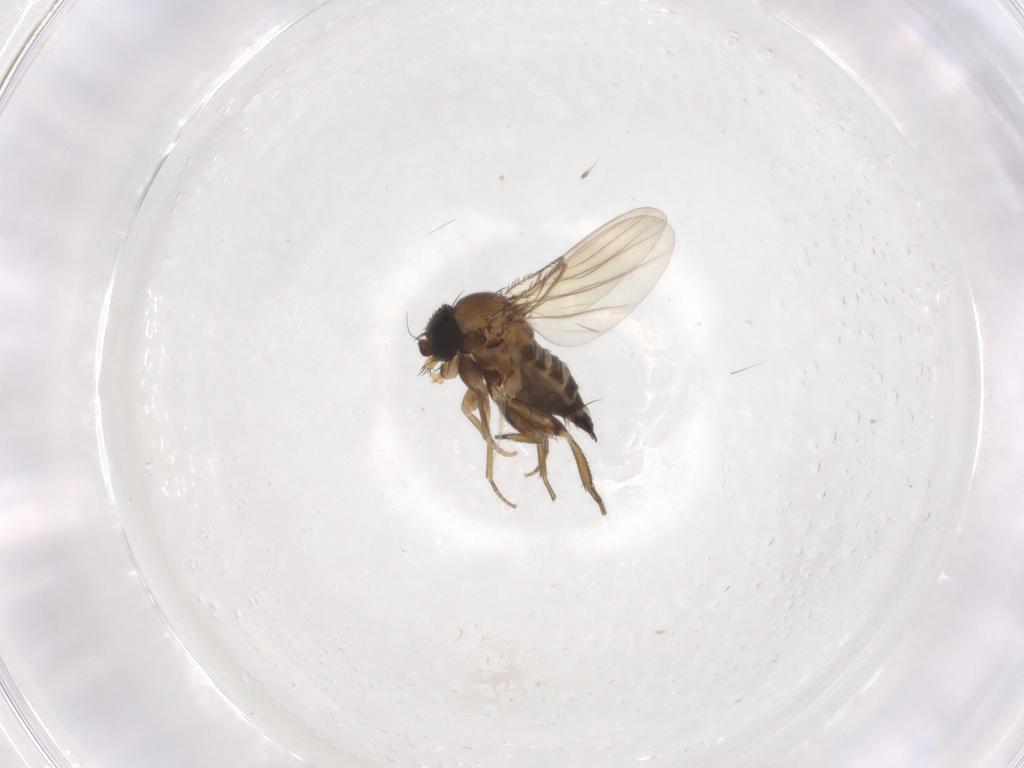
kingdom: Animalia
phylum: Arthropoda
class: Insecta
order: Diptera
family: Phoridae
